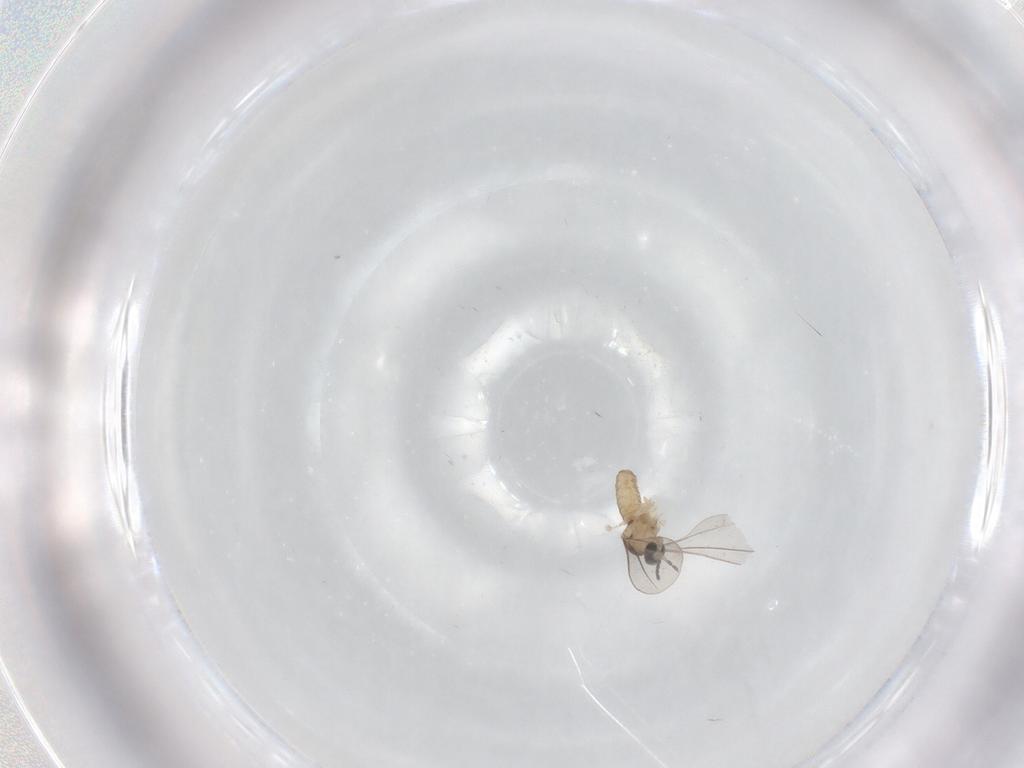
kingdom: Animalia
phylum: Arthropoda
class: Insecta
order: Diptera
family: Cecidomyiidae
